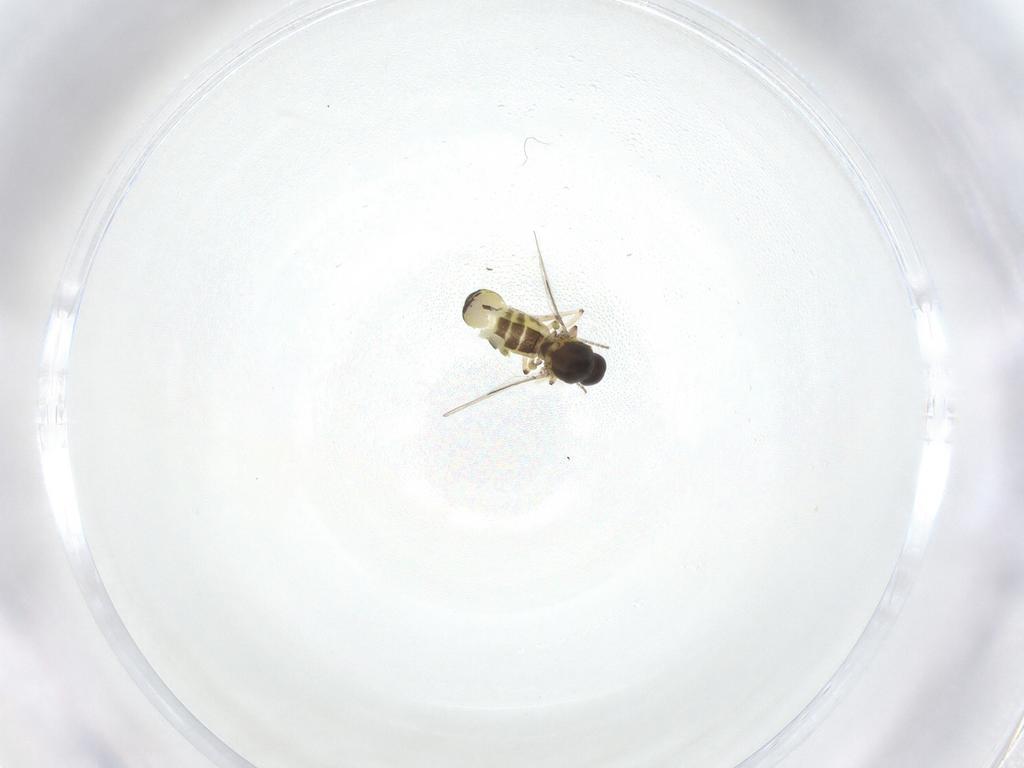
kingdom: Animalia
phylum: Arthropoda
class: Insecta
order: Diptera
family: Ceratopogonidae
